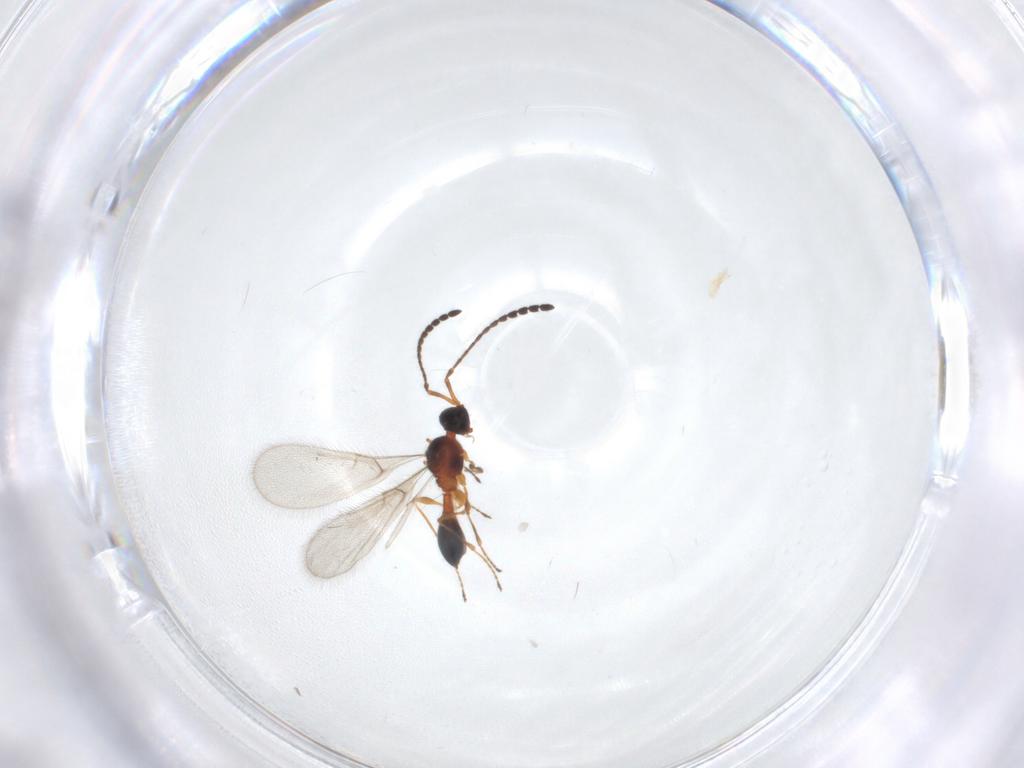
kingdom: Animalia
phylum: Arthropoda
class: Insecta
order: Hymenoptera
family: Diapriidae
